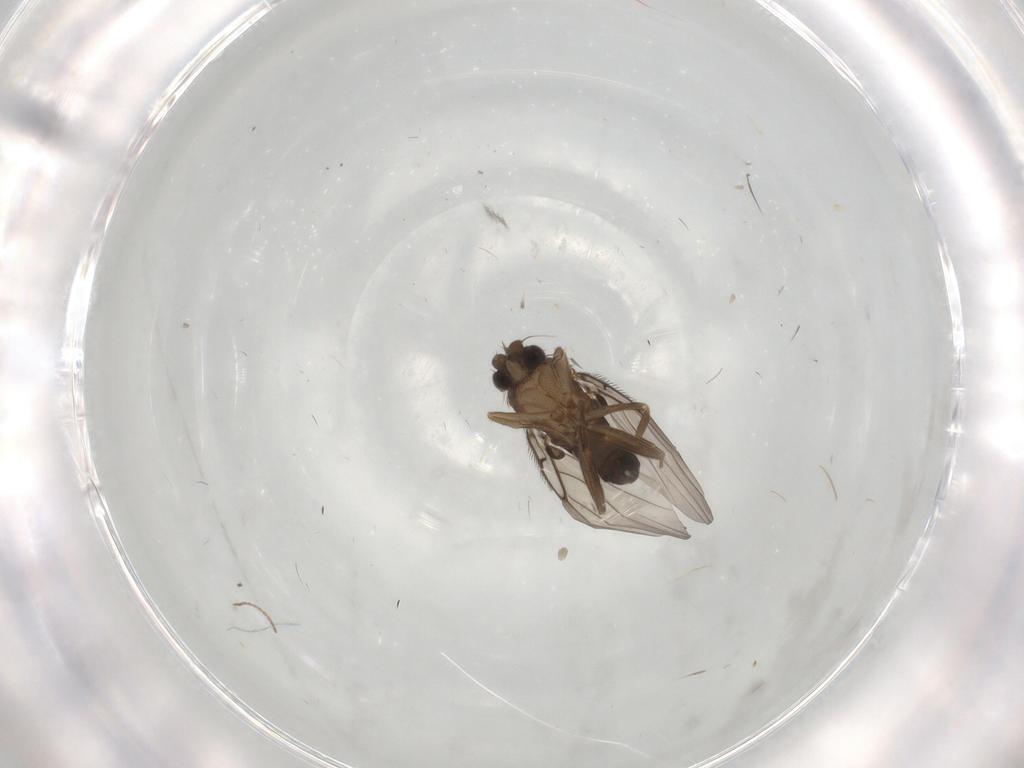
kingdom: Animalia
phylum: Arthropoda
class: Insecta
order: Diptera
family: Cecidomyiidae
